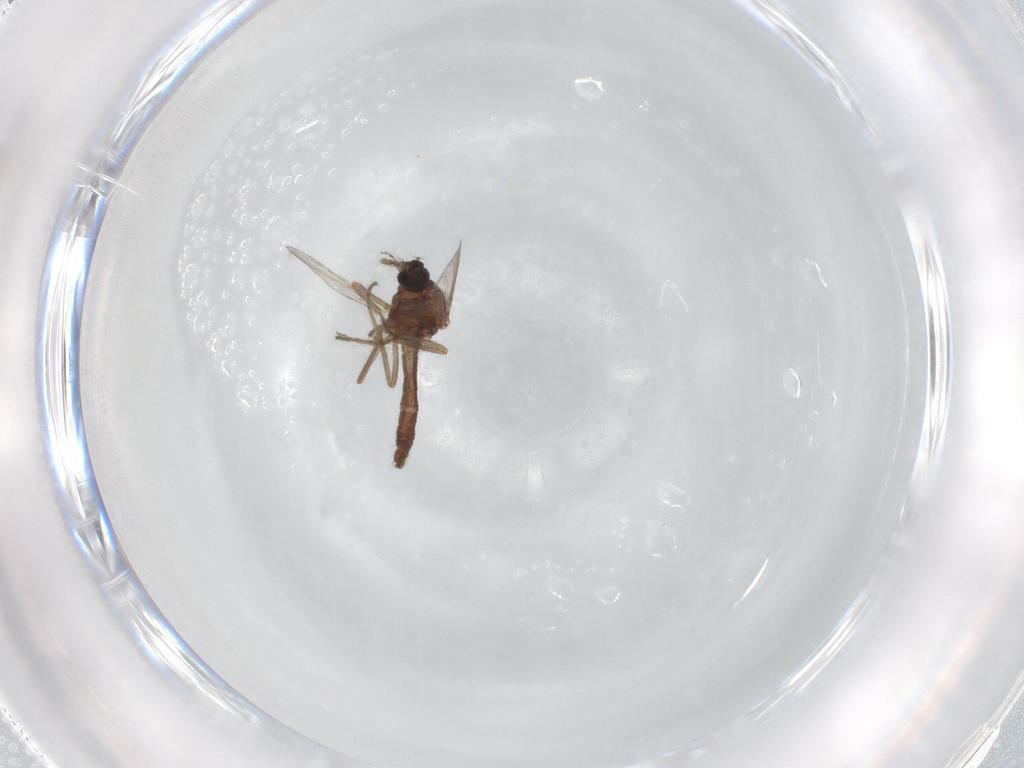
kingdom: Animalia
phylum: Arthropoda
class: Insecta
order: Diptera
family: Ceratopogonidae
